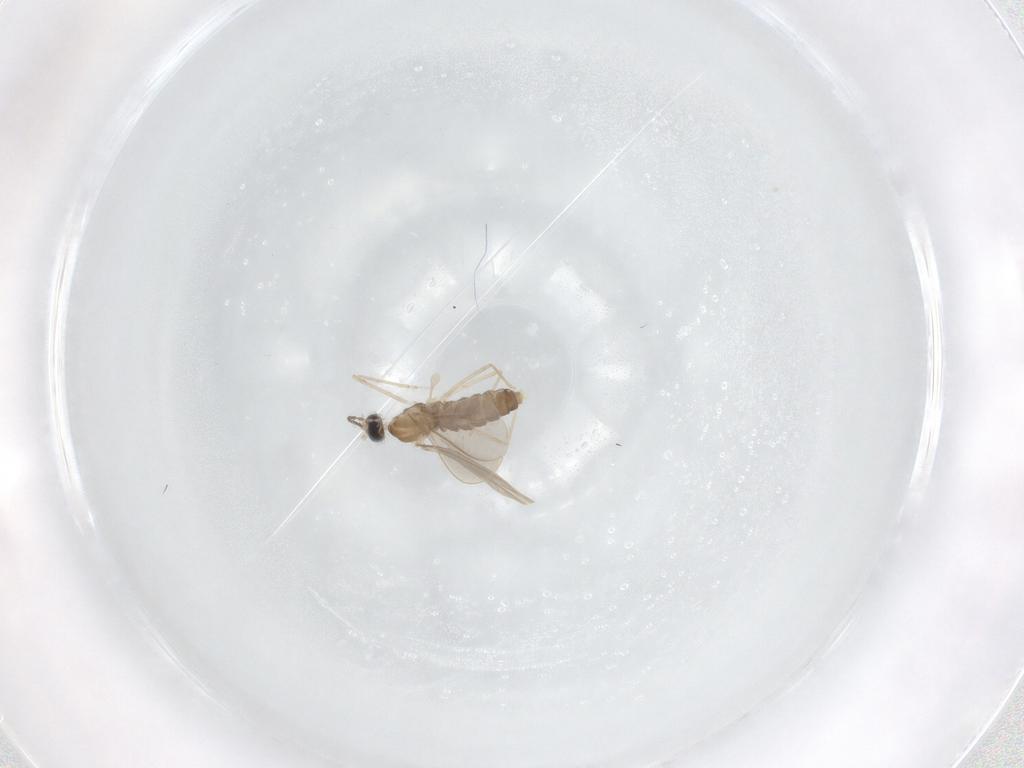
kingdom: Animalia
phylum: Arthropoda
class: Insecta
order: Diptera
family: Cecidomyiidae
